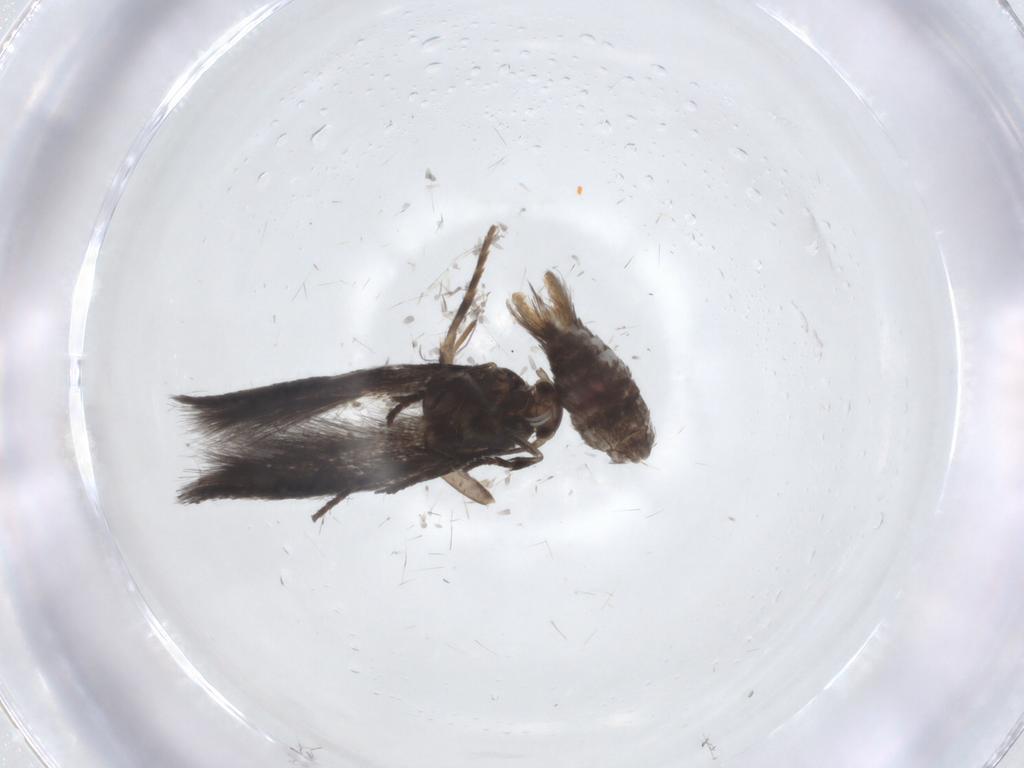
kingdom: Animalia
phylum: Arthropoda
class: Insecta
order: Lepidoptera
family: Elachistidae
